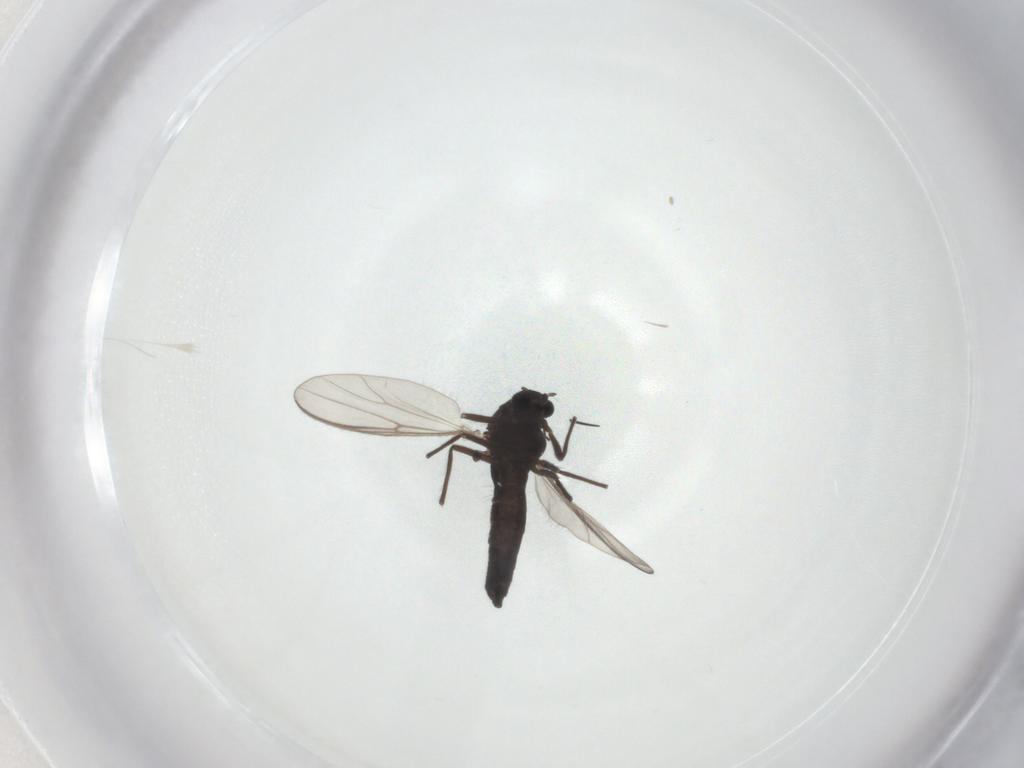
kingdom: Animalia
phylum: Arthropoda
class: Insecta
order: Diptera
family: Chironomidae
